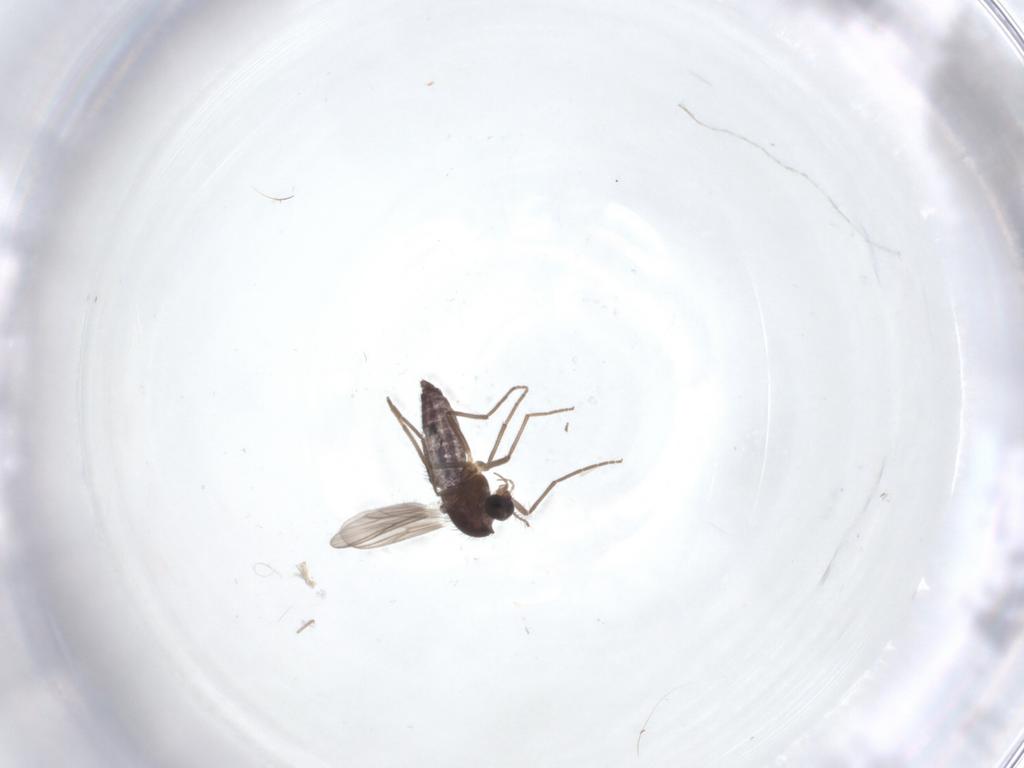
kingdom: Animalia
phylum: Arthropoda
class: Insecta
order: Diptera
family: Chironomidae
